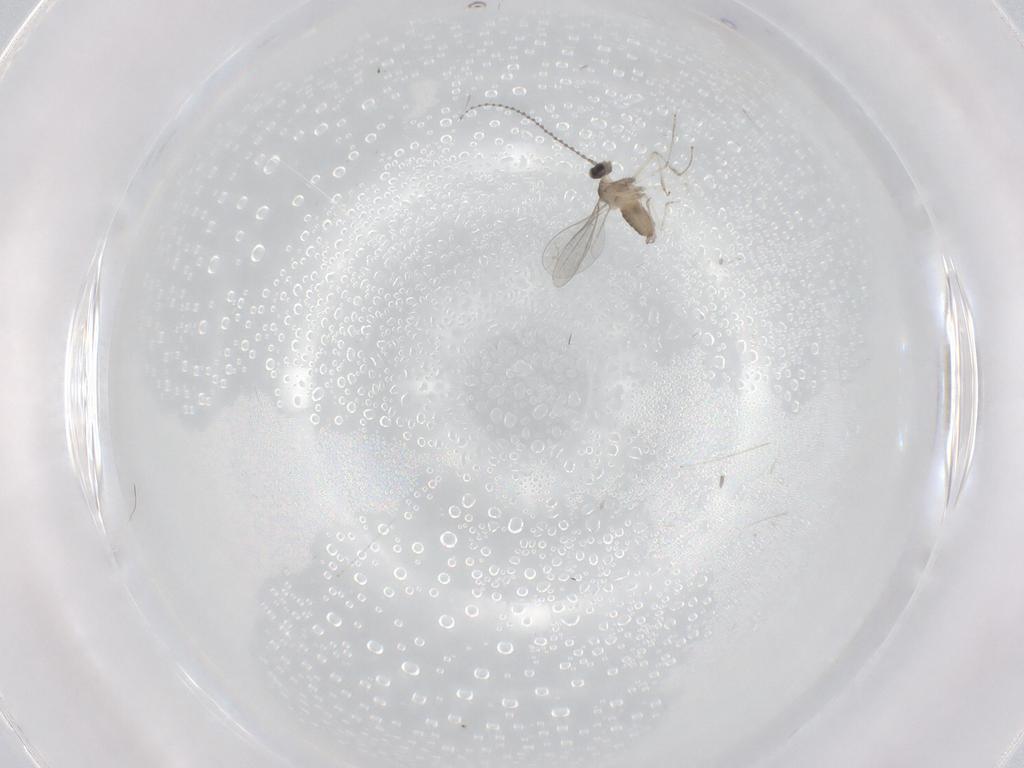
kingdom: Animalia
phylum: Arthropoda
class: Insecta
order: Diptera
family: Cecidomyiidae
